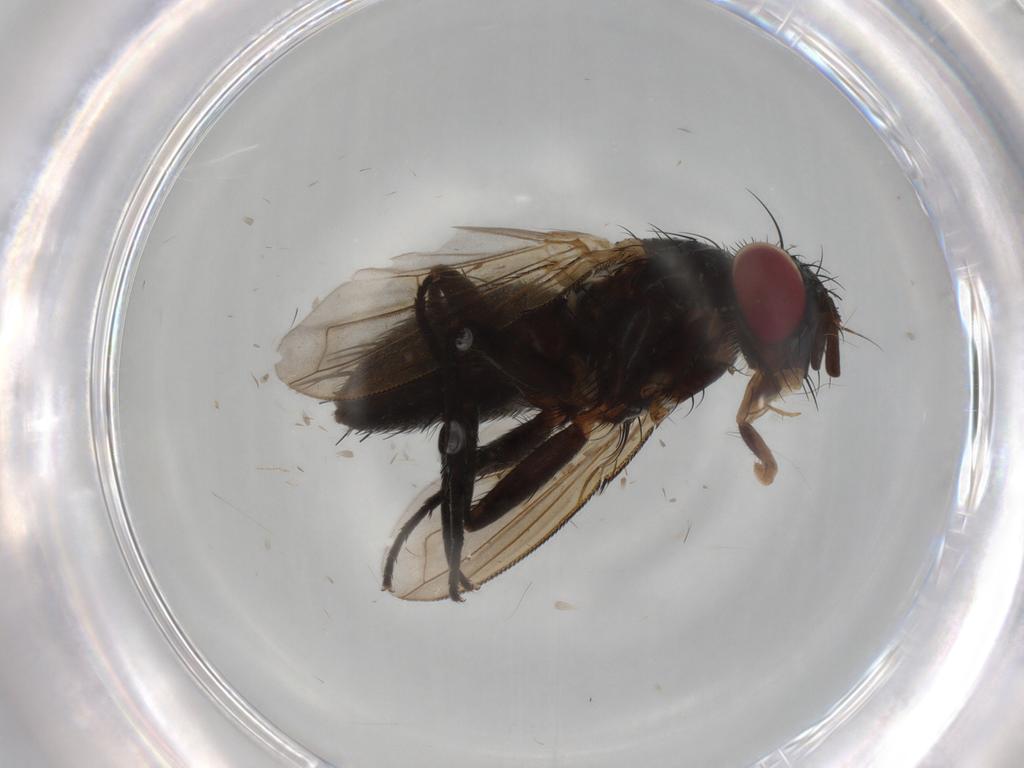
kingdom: Animalia
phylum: Arthropoda
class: Insecta
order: Diptera
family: Tachinidae
